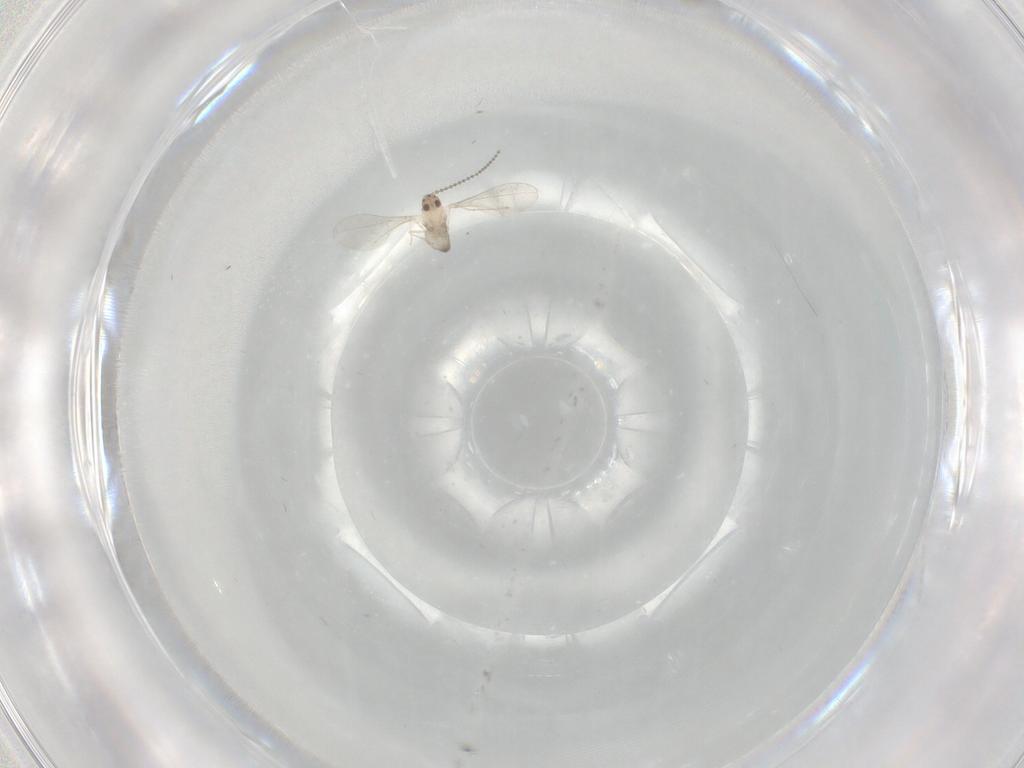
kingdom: Animalia
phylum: Arthropoda
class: Insecta
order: Diptera
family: Cecidomyiidae
